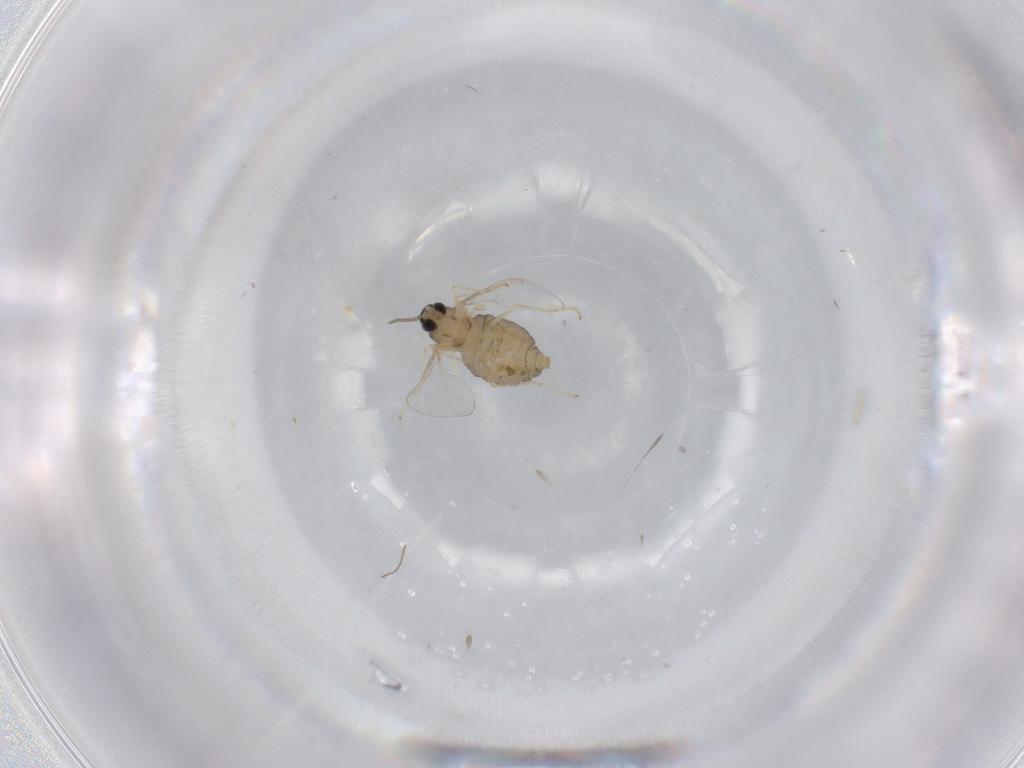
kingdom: Animalia
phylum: Arthropoda
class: Insecta
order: Diptera
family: Cecidomyiidae
